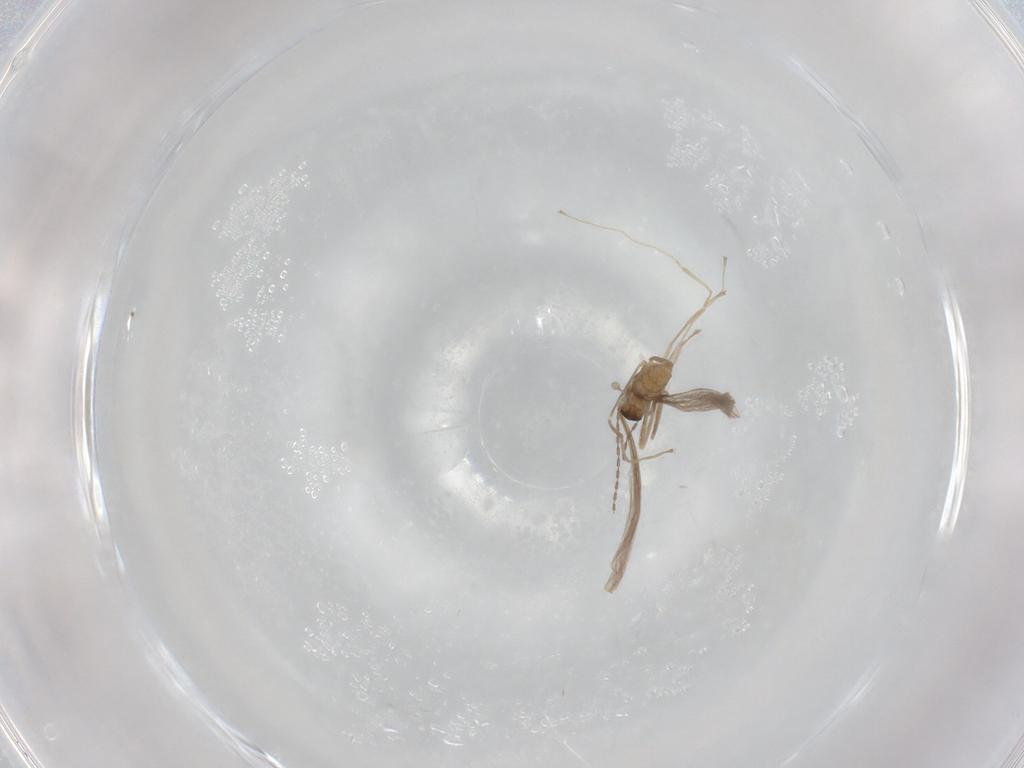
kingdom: Animalia
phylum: Arthropoda
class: Insecta
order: Diptera
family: Cecidomyiidae
